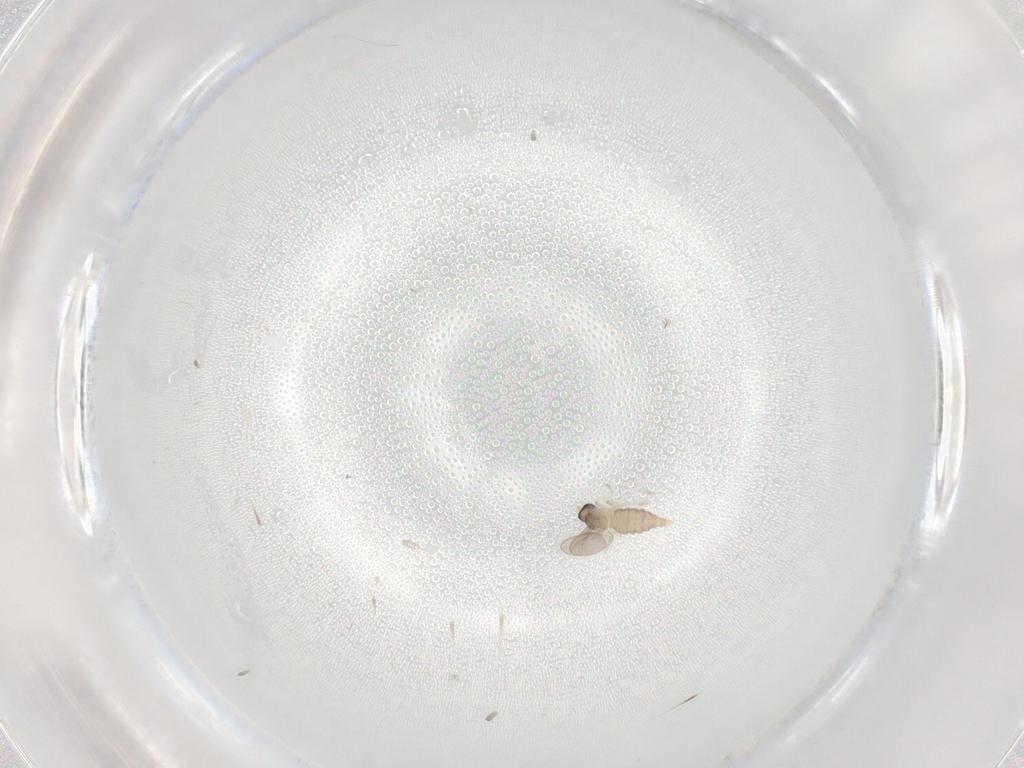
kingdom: Animalia
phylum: Arthropoda
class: Insecta
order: Diptera
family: Cecidomyiidae
